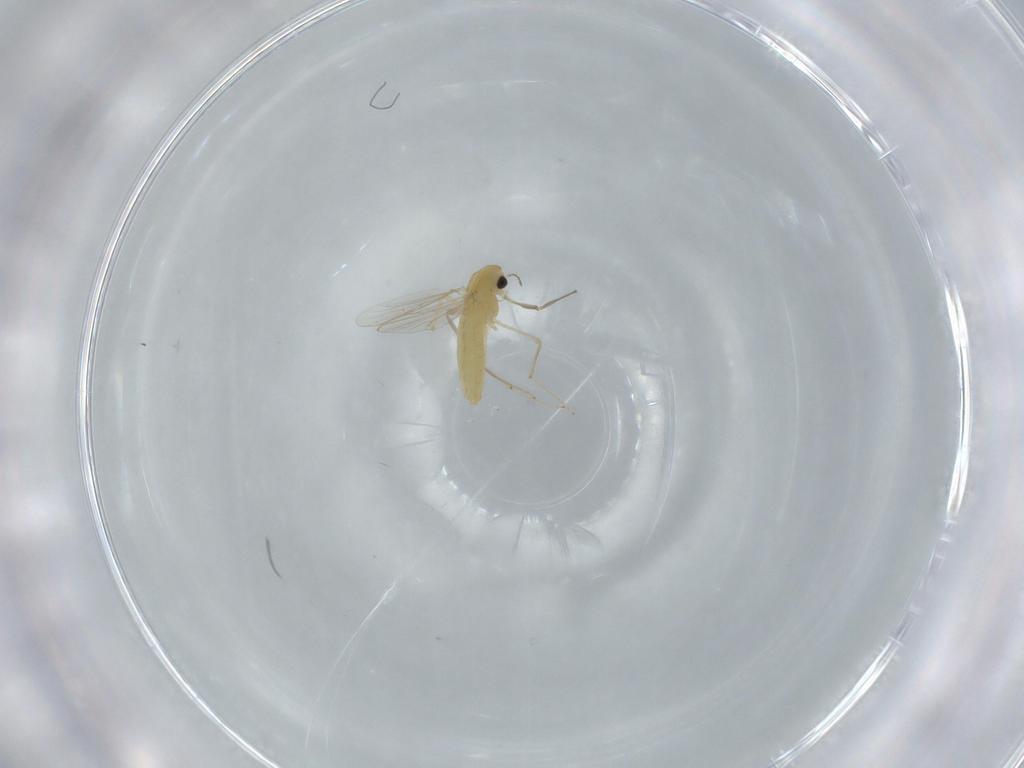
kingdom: Animalia
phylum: Arthropoda
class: Insecta
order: Diptera
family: Chironomidae
